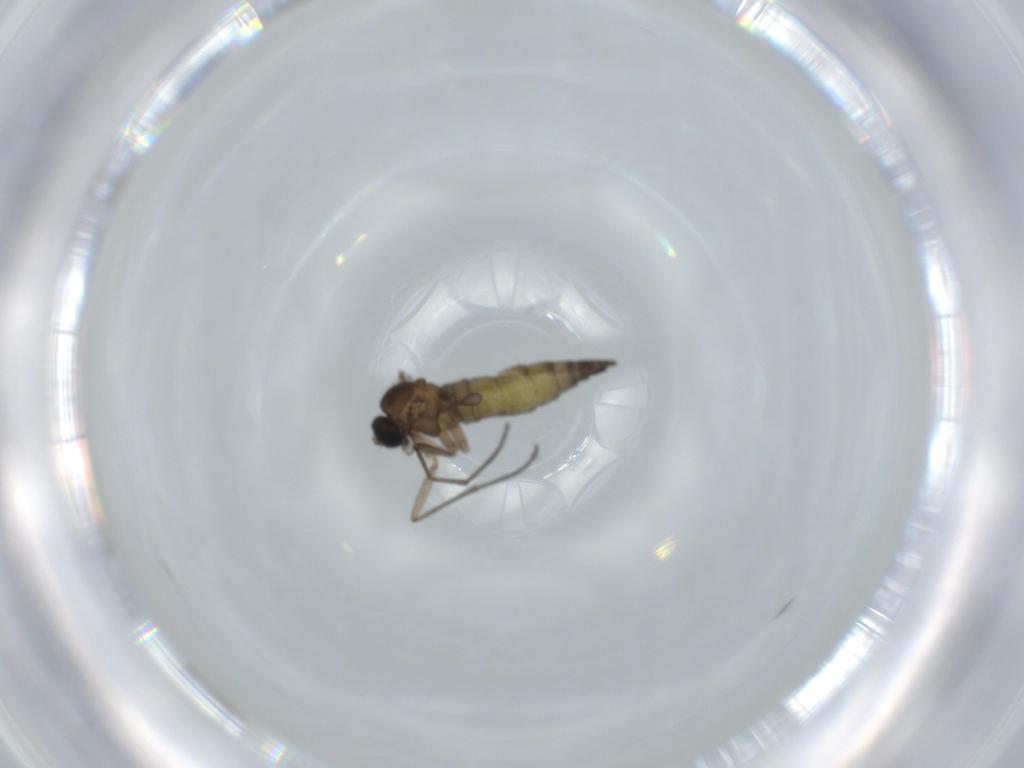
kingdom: Animalia
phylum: Arthropoda
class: Insecta
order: Diptera
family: Sciaridae
